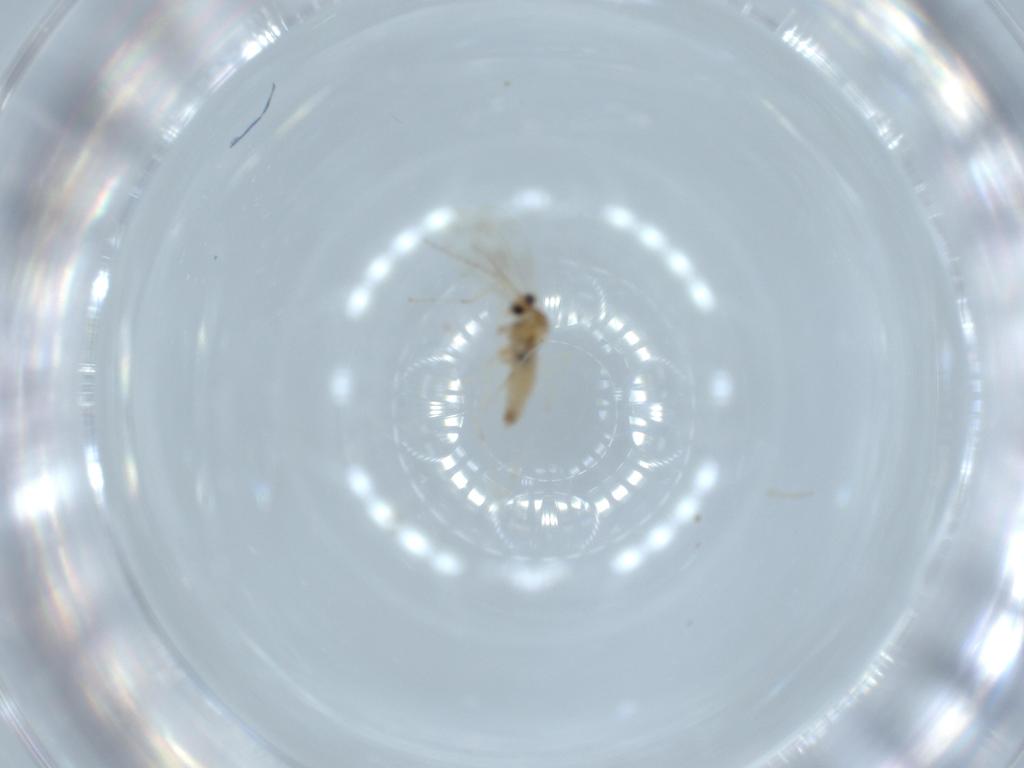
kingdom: Animalia
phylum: Arthropoda
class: Insecta
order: Diptera
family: Cecidomyiidae
